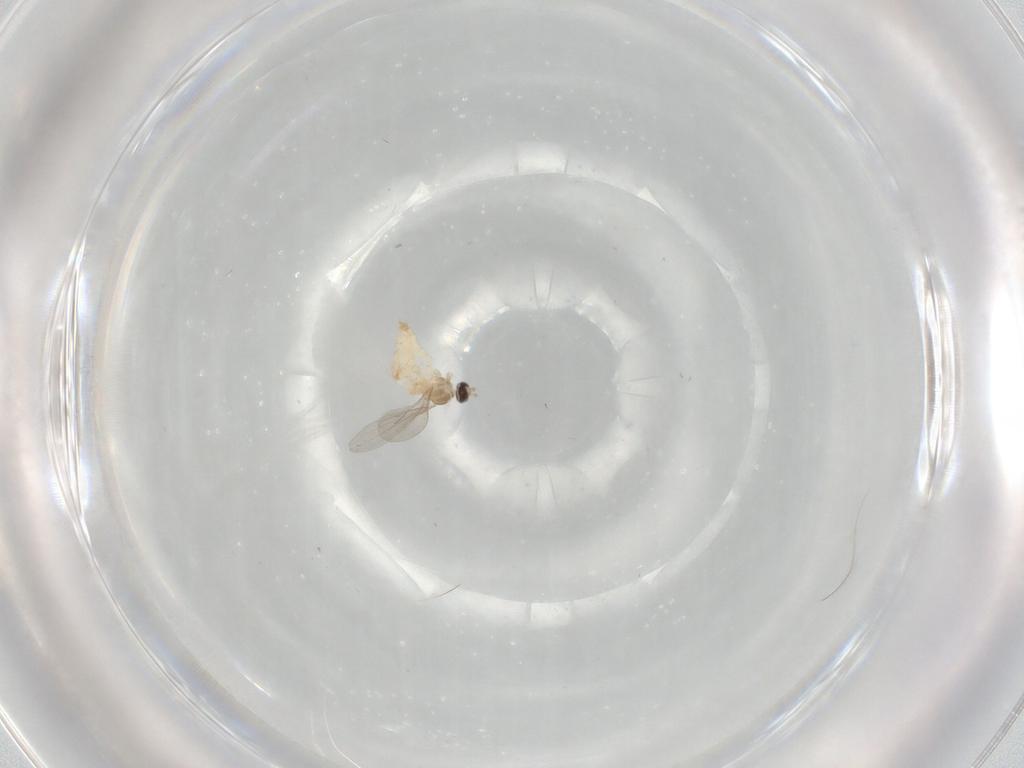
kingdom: Animalia
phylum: Arthropoda
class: Insecta
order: Diptera
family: Cecidomyiidae
